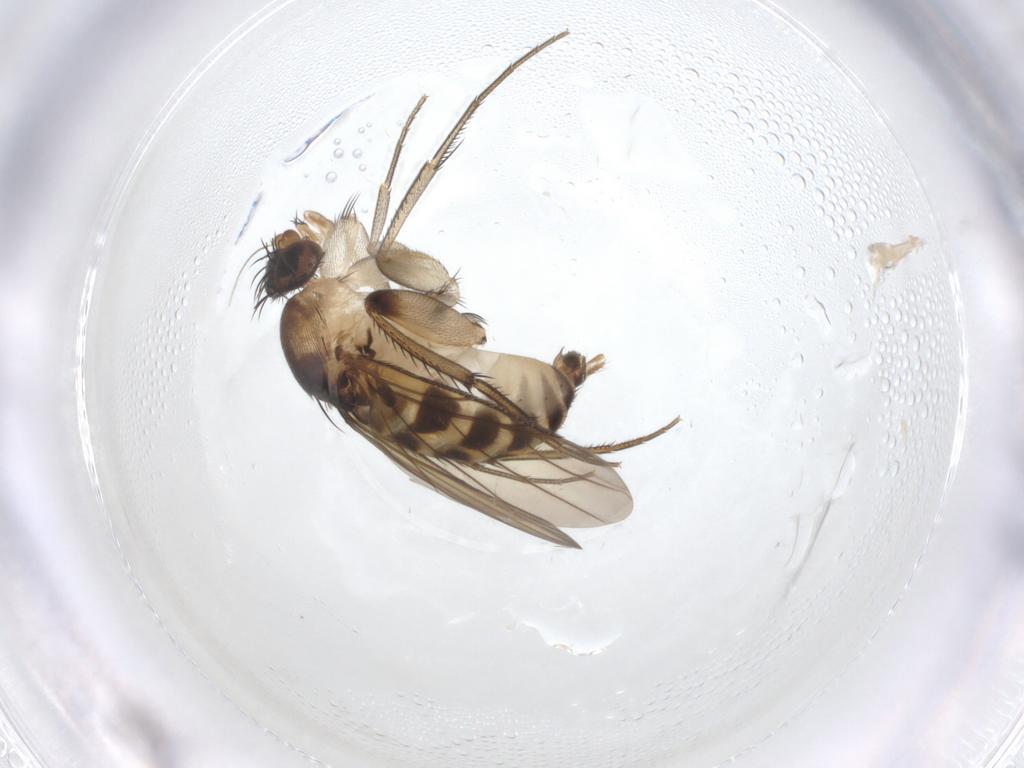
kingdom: Animalia
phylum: Arthropoda
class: Insecta
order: Diptera
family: Phoridae
